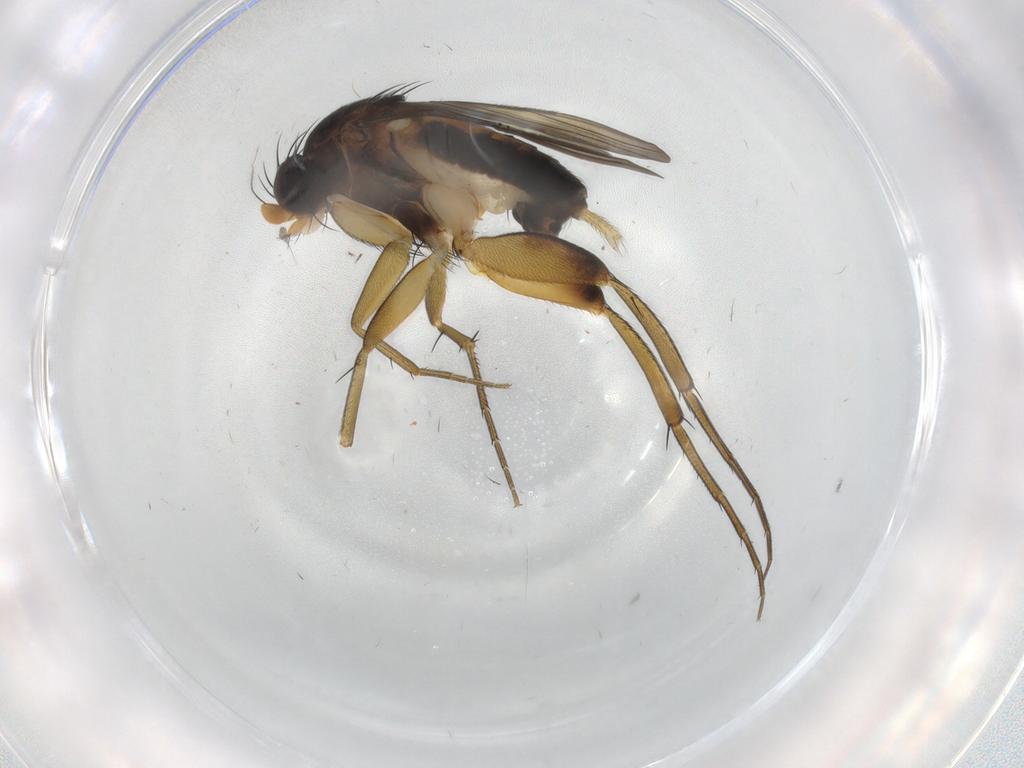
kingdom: Animalia
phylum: Arthropoda
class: Insecta
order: Diptera
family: Phoridae
